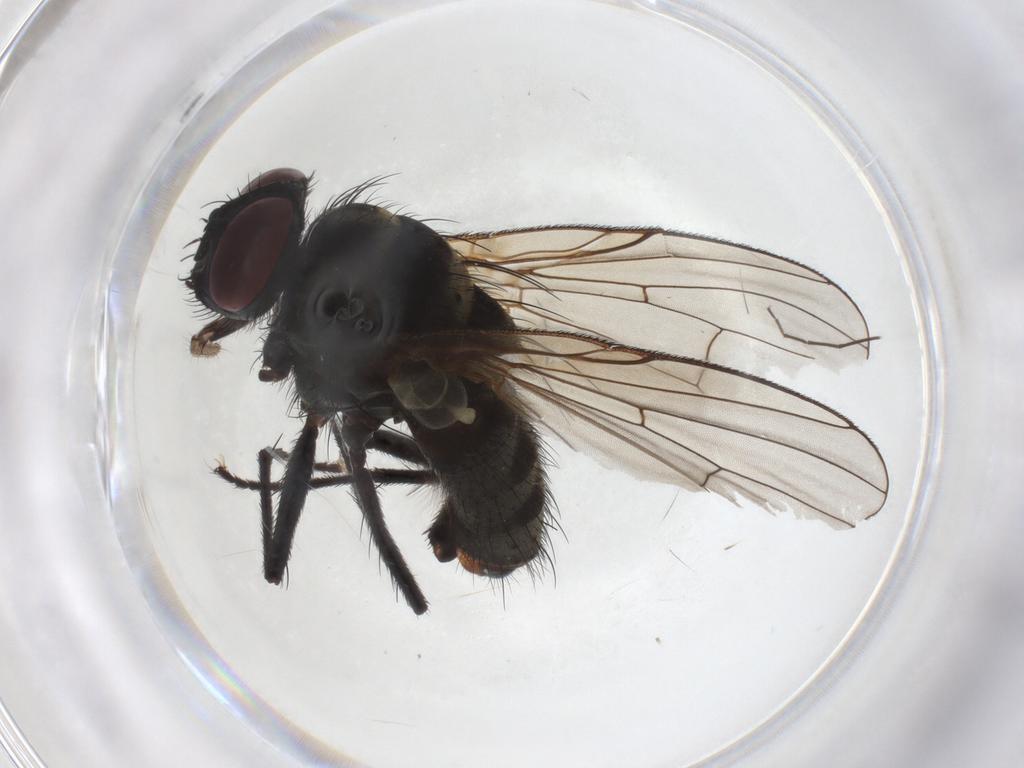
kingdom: Animalia
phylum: Arthropoda
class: Insecta
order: Diptera
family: Muscidae
